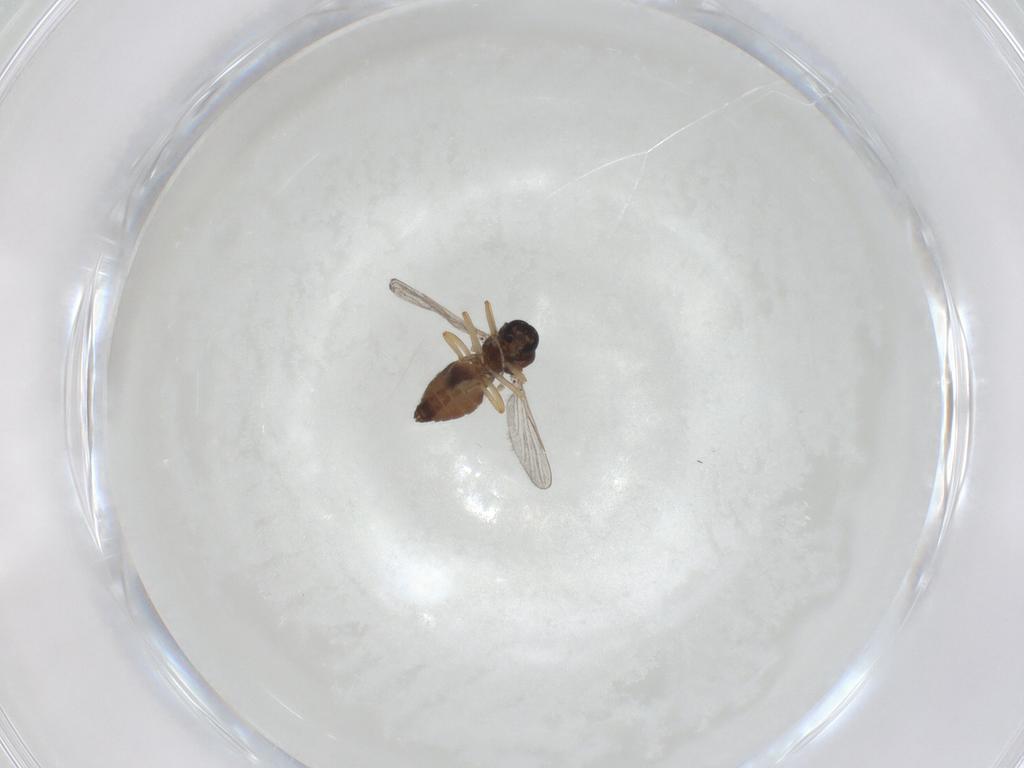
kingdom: Animalia
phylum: Arthropoda
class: Insecta
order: Diptera
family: Ceratopogonidae
